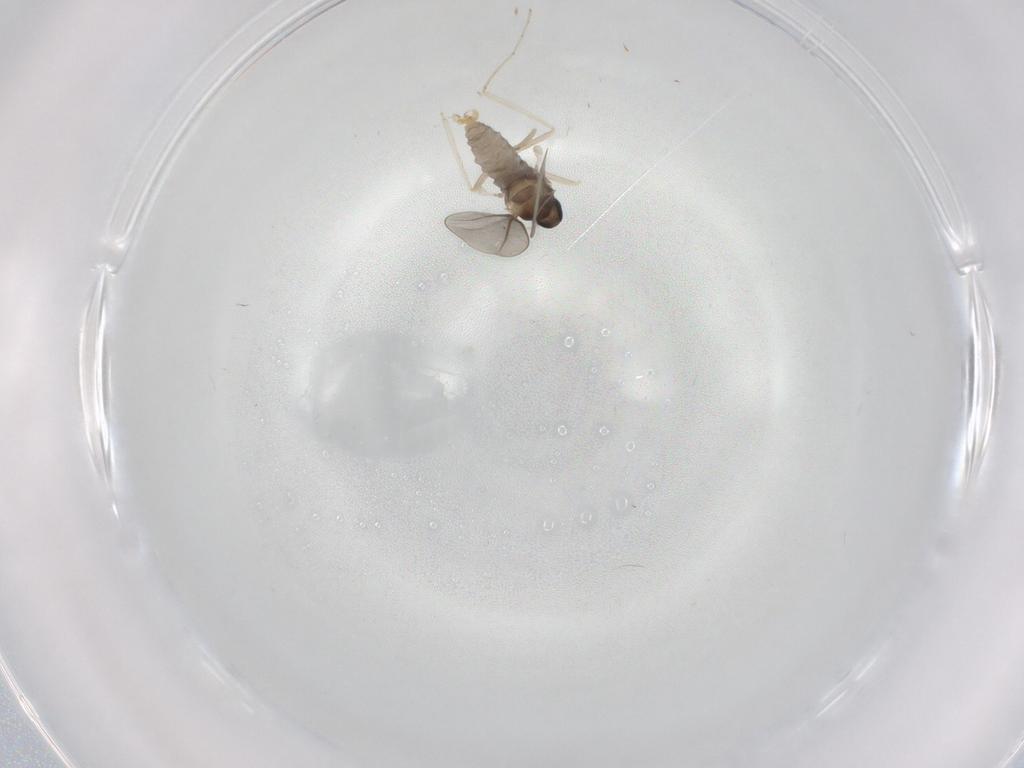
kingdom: Animalia
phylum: Arthropoda
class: Insecta
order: Diptera
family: Cecidomyiidae
